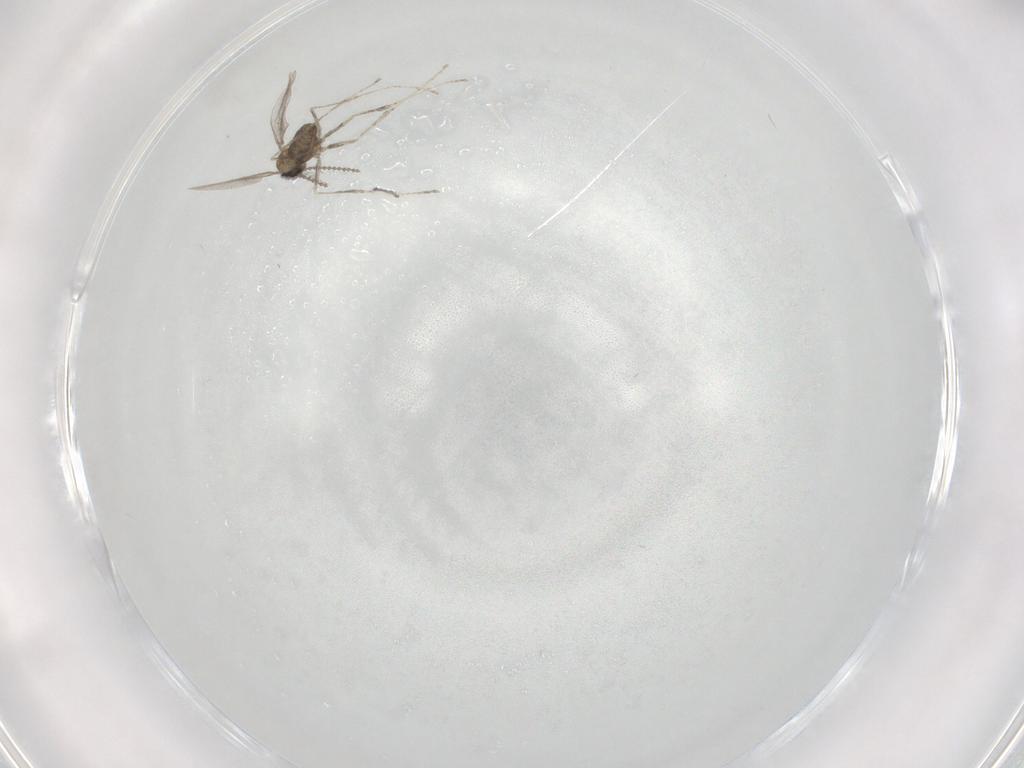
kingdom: Animalia
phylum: Arthropoda
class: Insecta
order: Diptera
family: Cecidomyiidae
